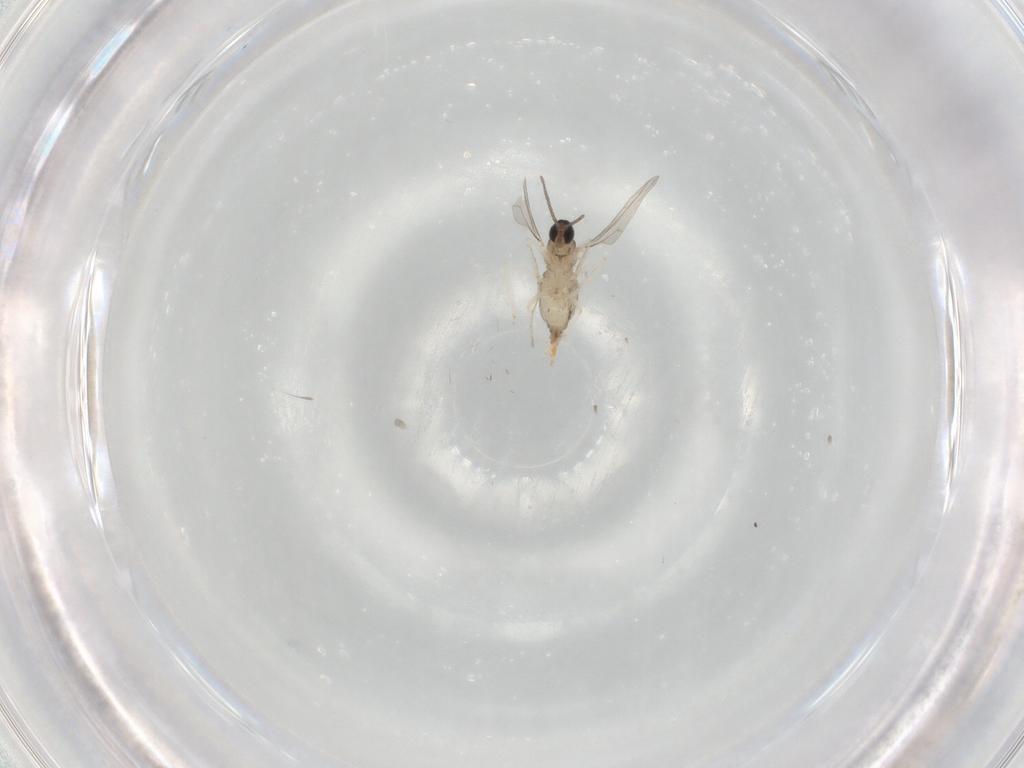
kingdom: Animalia
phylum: Arthropoda
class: Insecta
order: Diptera
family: Cecidomyiidae
